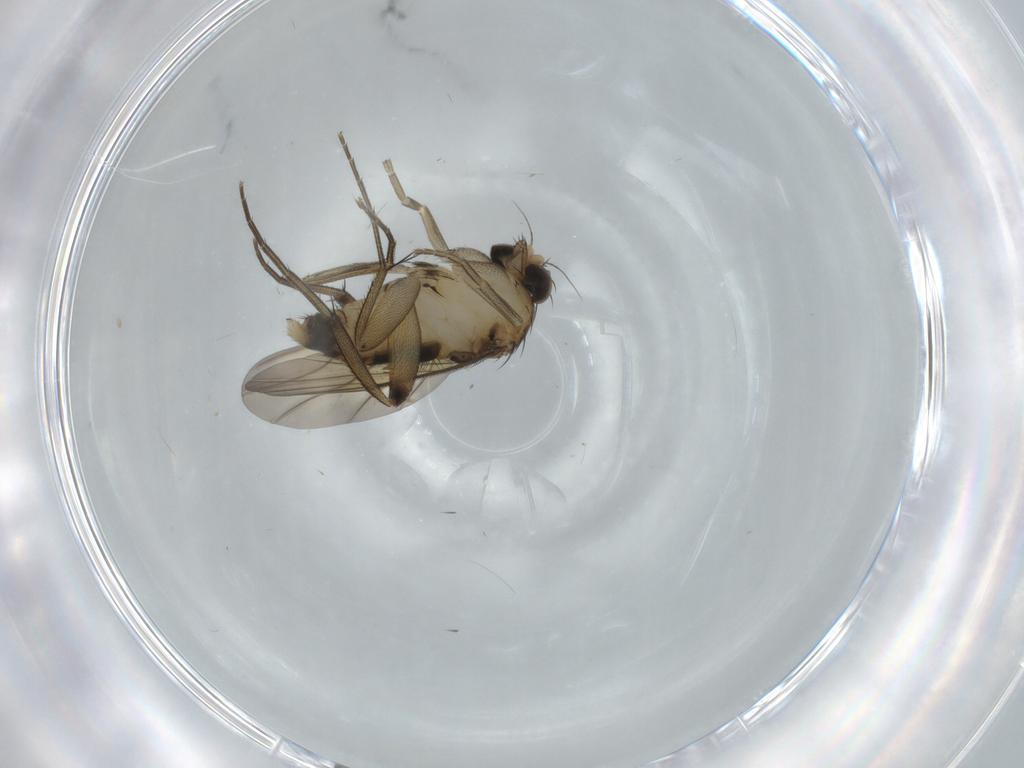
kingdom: Animalia
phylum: Arthropoda
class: Insecta
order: Diptera
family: Phoridae
